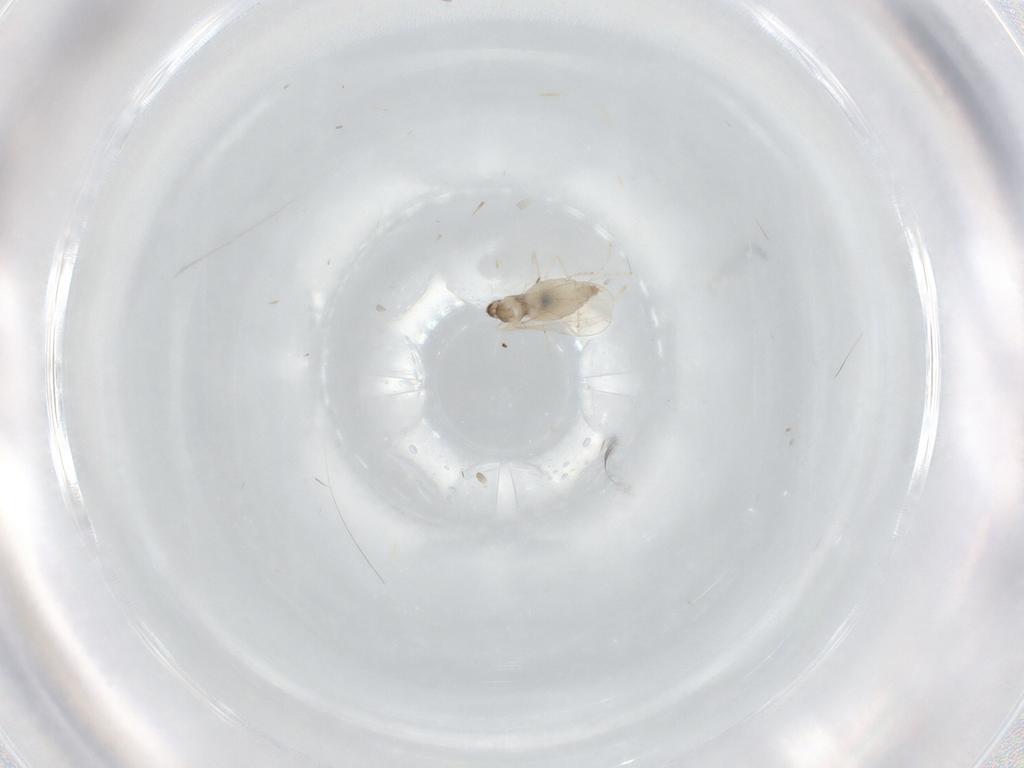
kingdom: Animalia
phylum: Arthropoda
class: Insecta
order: Diptera
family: Cecidomyiidae
